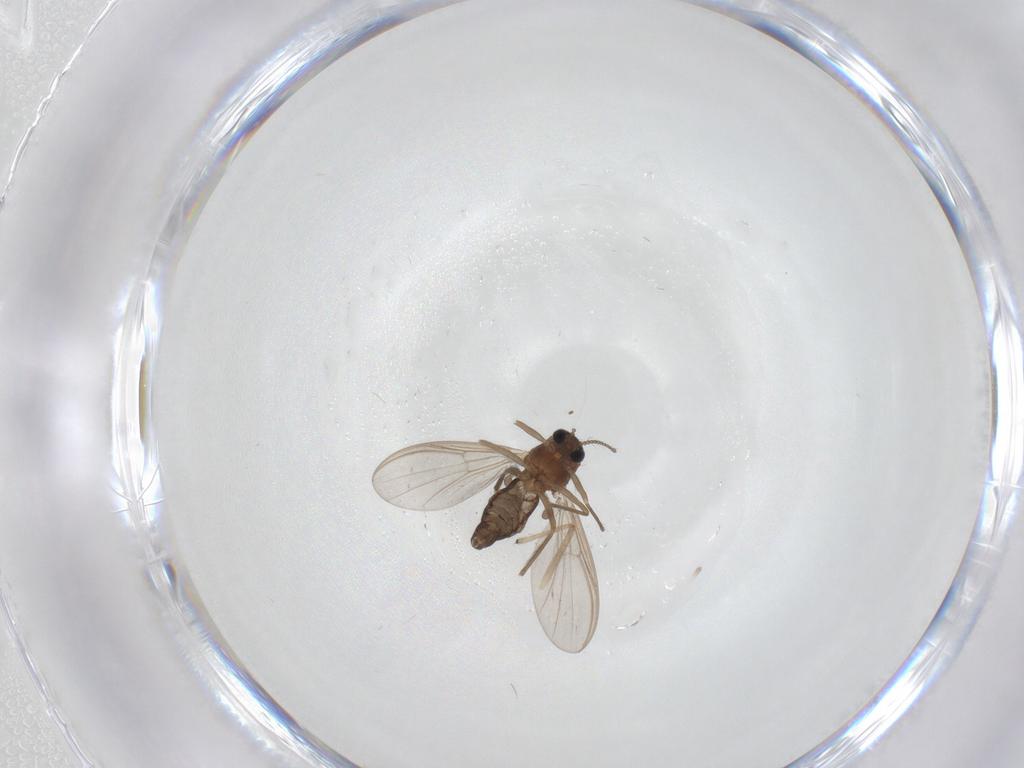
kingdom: Animalia
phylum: Arthropoda
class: Insecta
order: Diptera
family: Chironomidae
